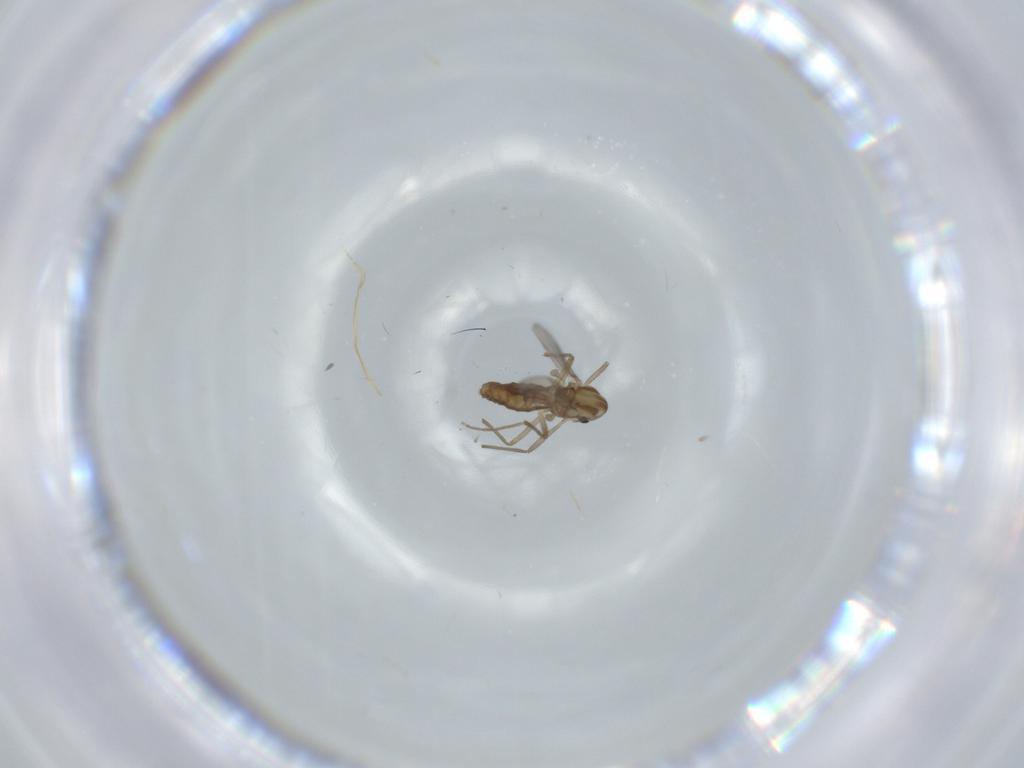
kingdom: Animalia
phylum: Arthropoda
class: Insecta
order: Diptera
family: Chironomidae
